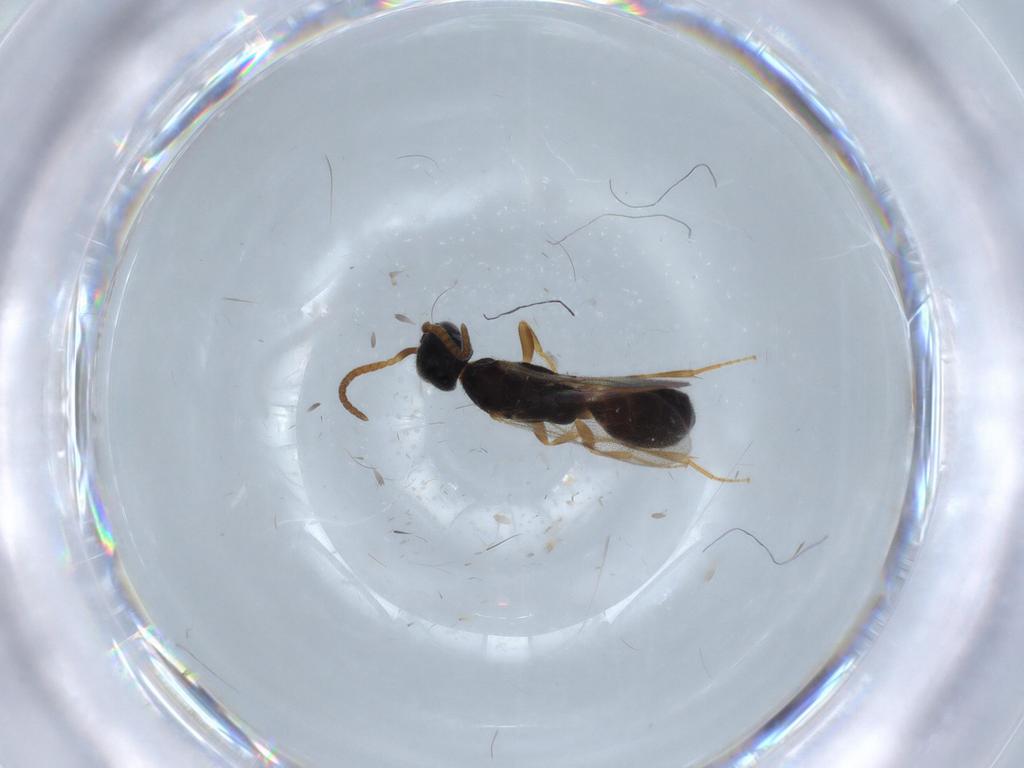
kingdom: Animalia
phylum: Arthropoda
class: Insecta
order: Hymenoptera
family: Bethylidae
